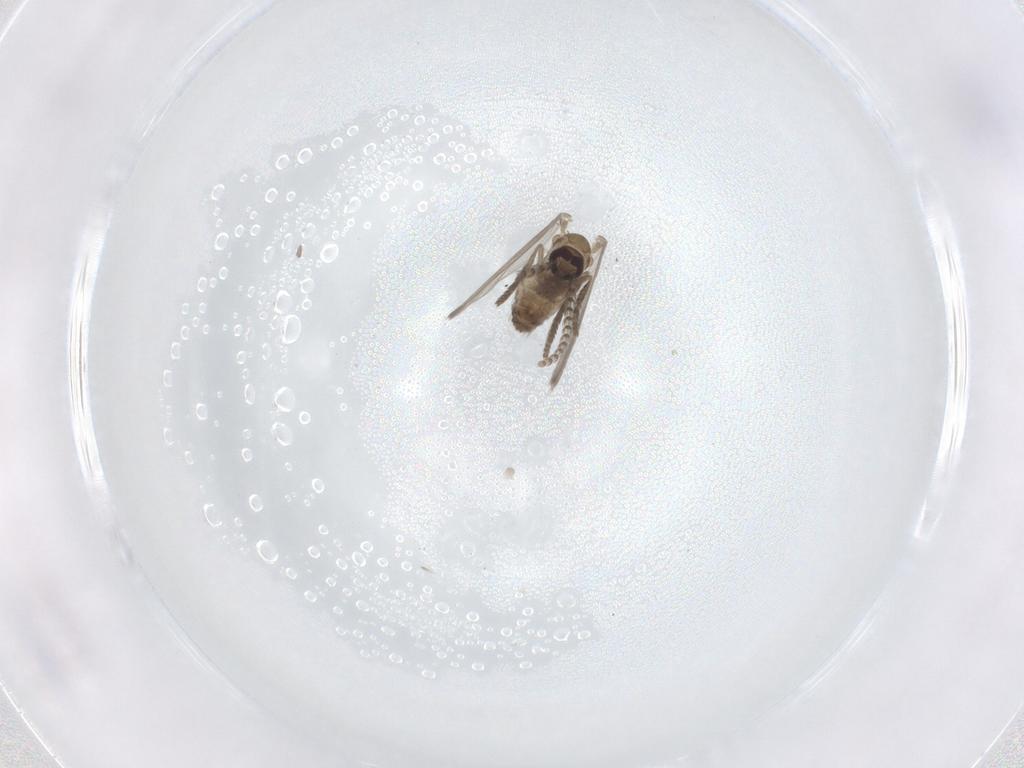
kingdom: Animalia
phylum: Arthropoda
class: Insecta
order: Diptera
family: Psychodidae
